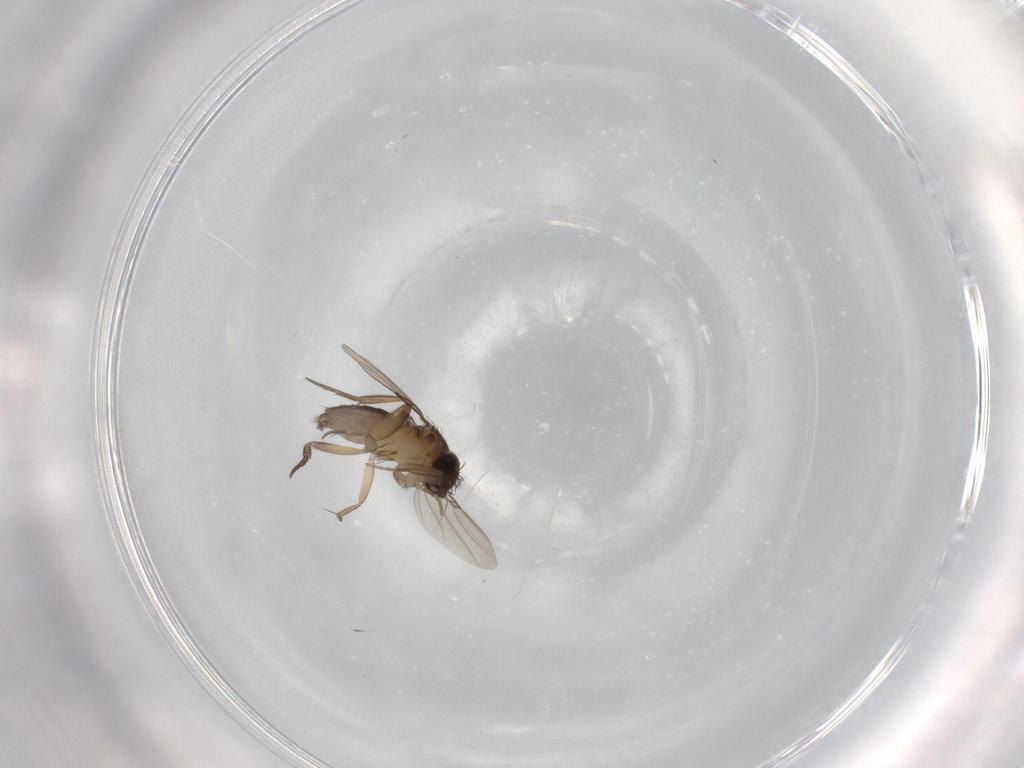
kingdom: Animalia
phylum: Arthropoda
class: Insecta
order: Diptera
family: Phoridae
